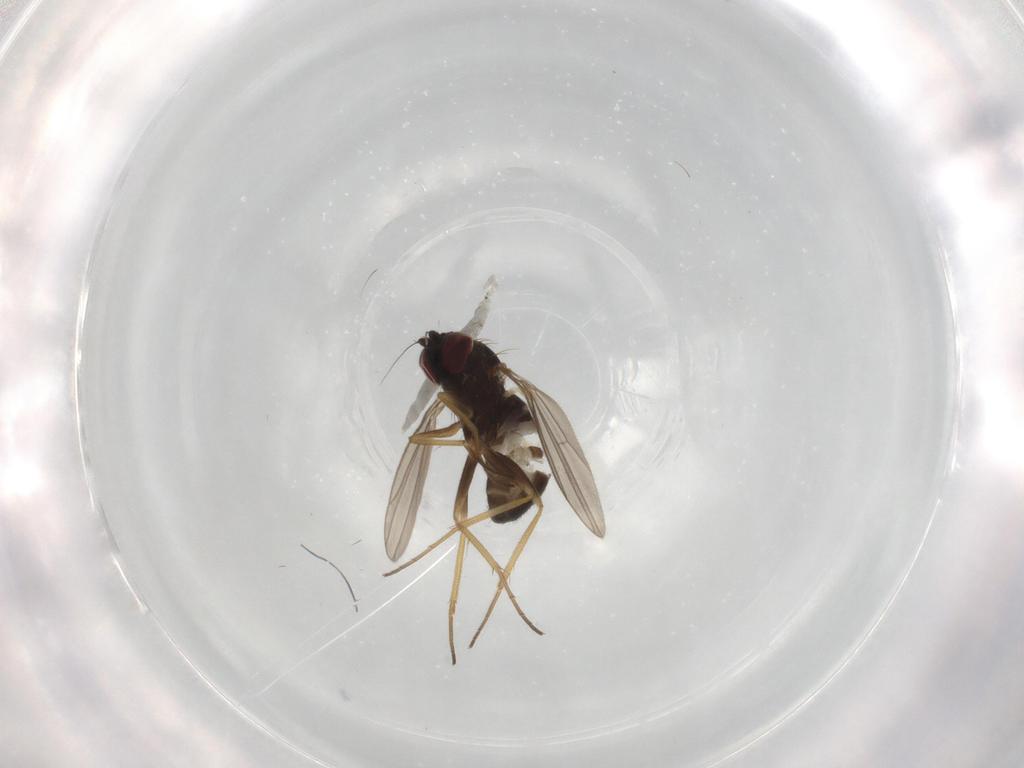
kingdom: Animalia
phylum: Arthropoda
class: Insecta
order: Diptera
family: Dolichopodidae
